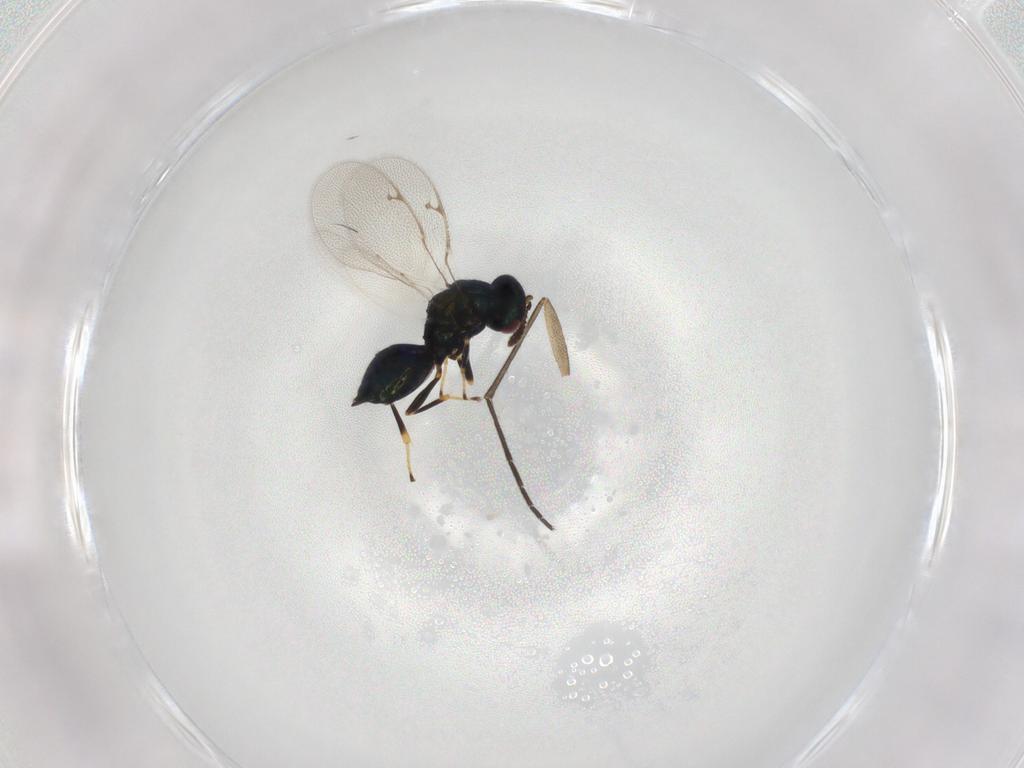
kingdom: Animalia
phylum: Arthropoda
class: Insecta
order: Hymenoptera
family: Pteromalidae
